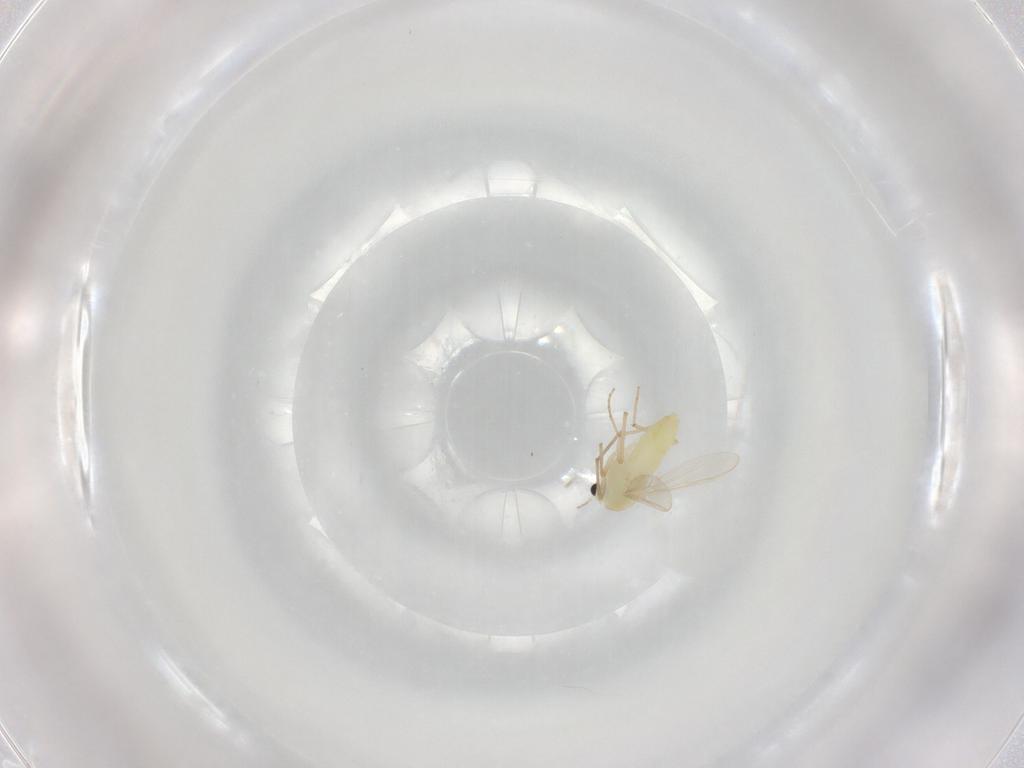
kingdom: Animalia
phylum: Arthropoda
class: Insecta
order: Diptera
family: Chironomidae
